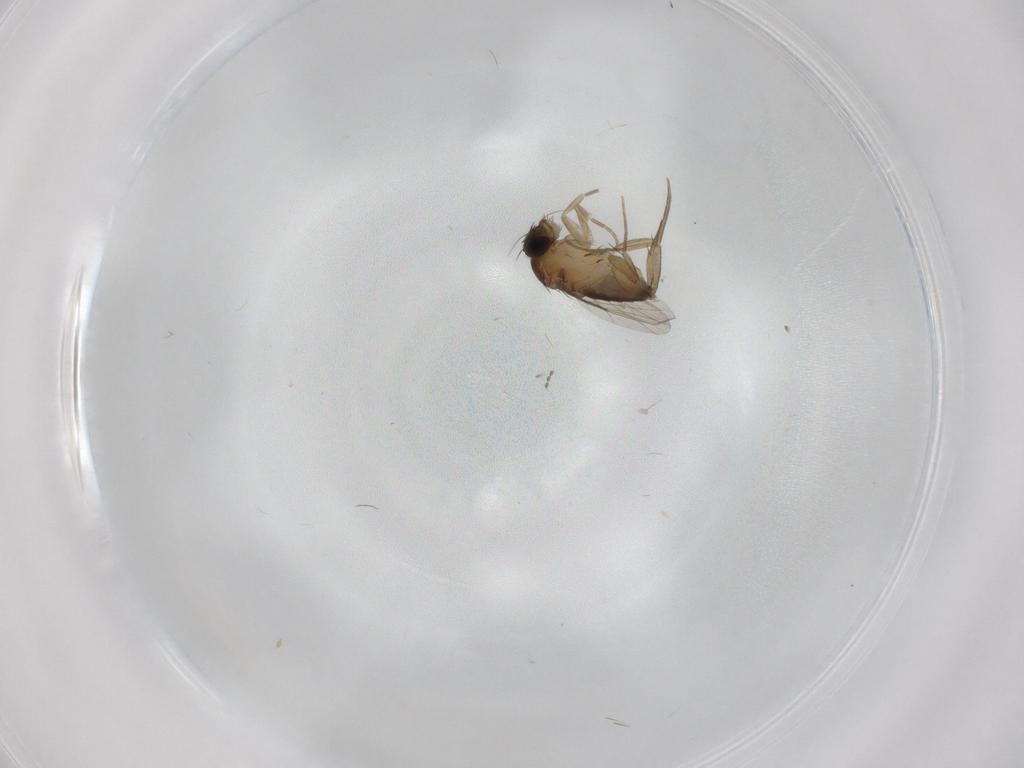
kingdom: Animalia
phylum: Arthropoda
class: Insecta
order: Diptera
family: Phoridae
